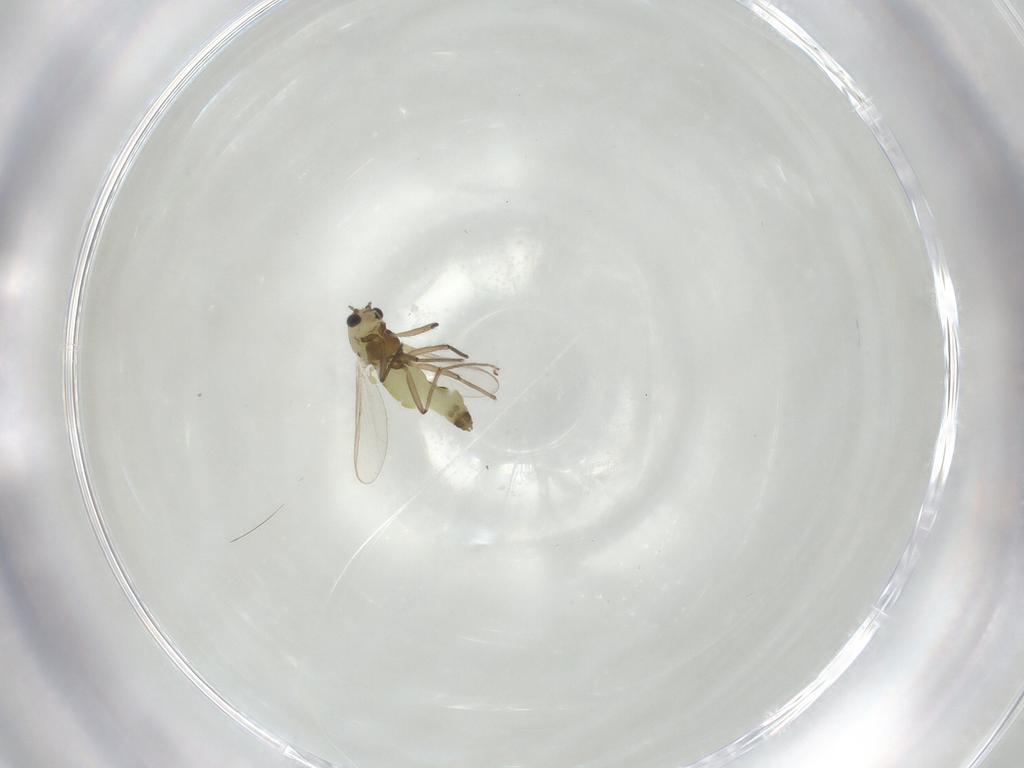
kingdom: Animalia
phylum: Arthropoda
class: Insecta
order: Diptera
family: Chironomidae
